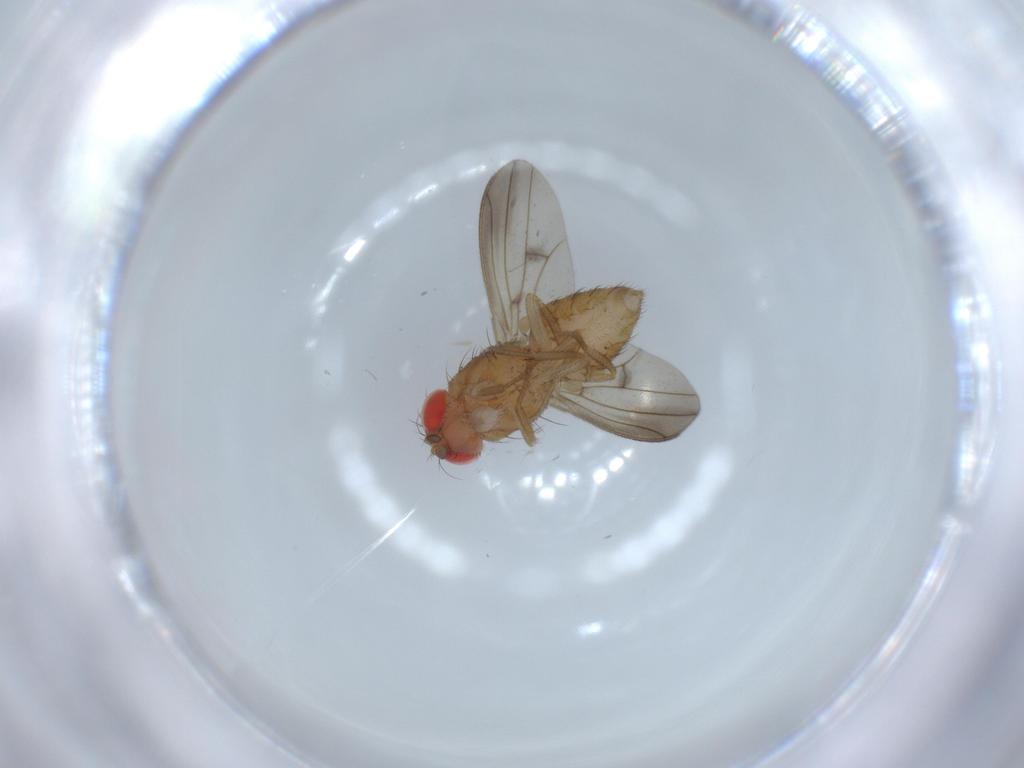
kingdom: Animalia
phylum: Arthropoda
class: Insecta
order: Diptera
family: Drosophilidae
